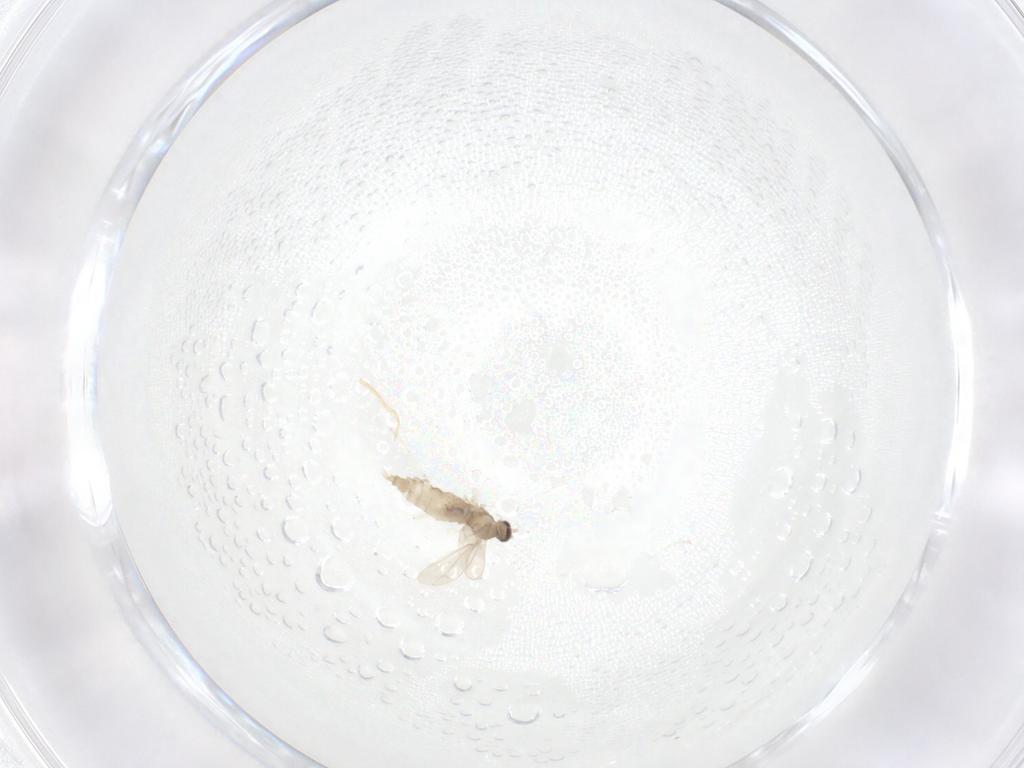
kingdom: Animalia
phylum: Arthropoda
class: Insecta
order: Diptera
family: Cecidomyiidae
